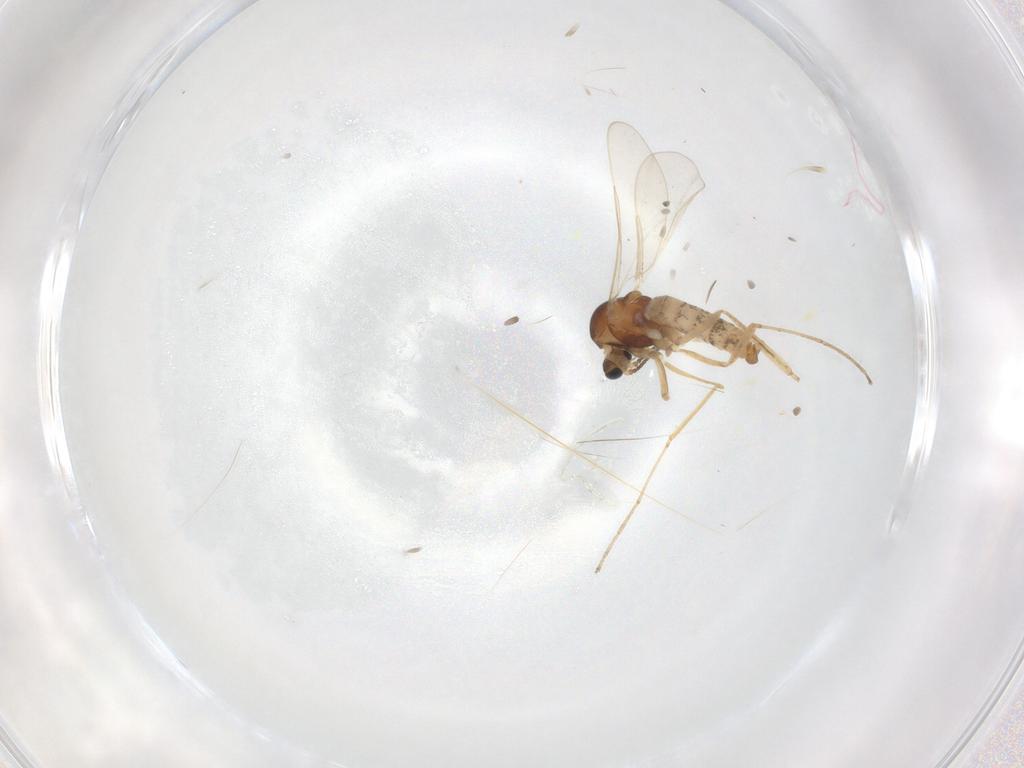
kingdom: Animalia
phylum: Arthropoda
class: Insecta
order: Diptera
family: Cecidomyiidae
